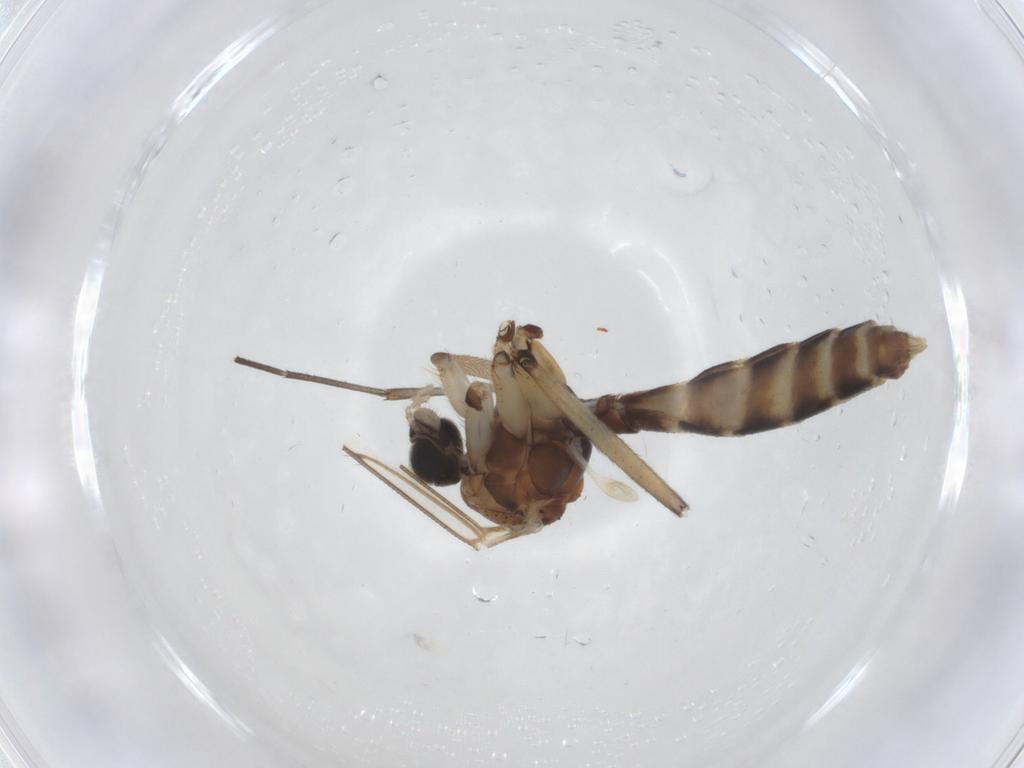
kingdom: Animalia
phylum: Arthropoda
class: Insecta
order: Diptera
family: Mycetophilidae
